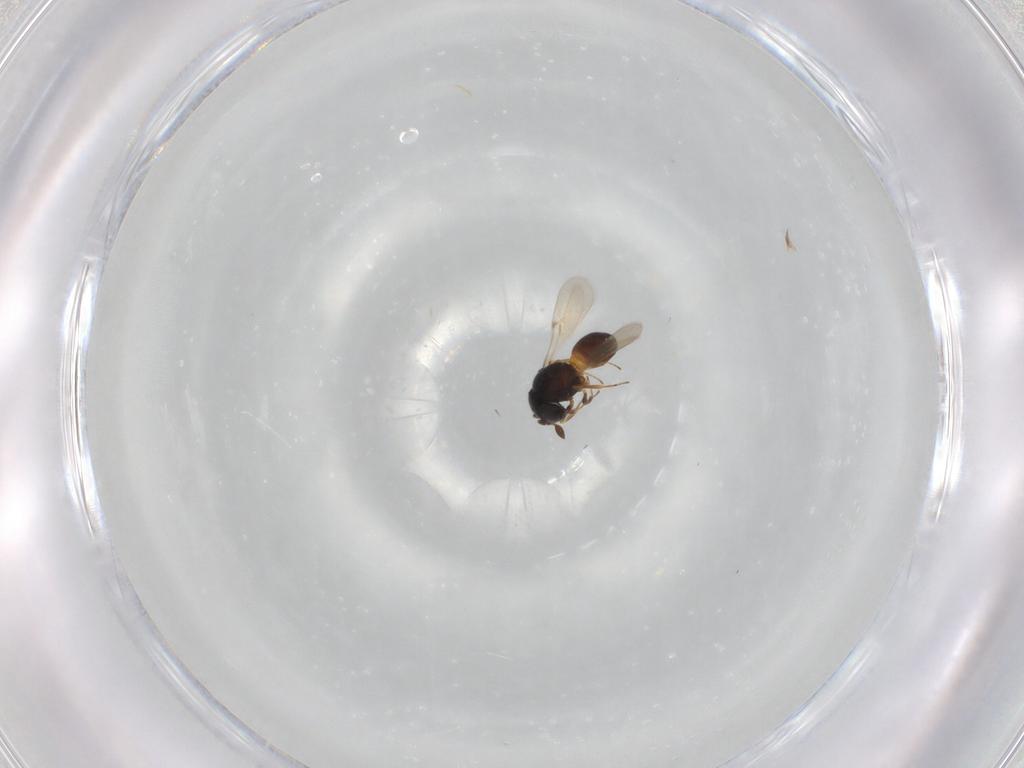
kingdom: Animalia
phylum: Arthropoda
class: Insecta
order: Hymenoptera
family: Scelionidae
